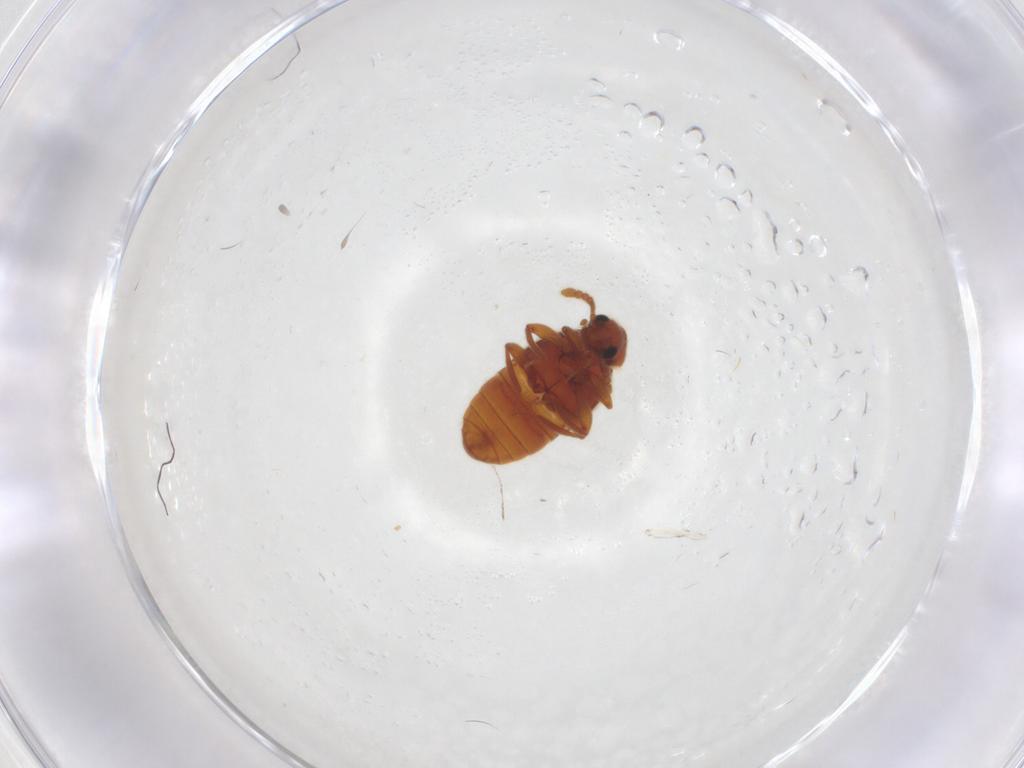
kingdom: Animalia
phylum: Arthropoda
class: Insecta
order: Coleoptera
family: Staphylinidae
